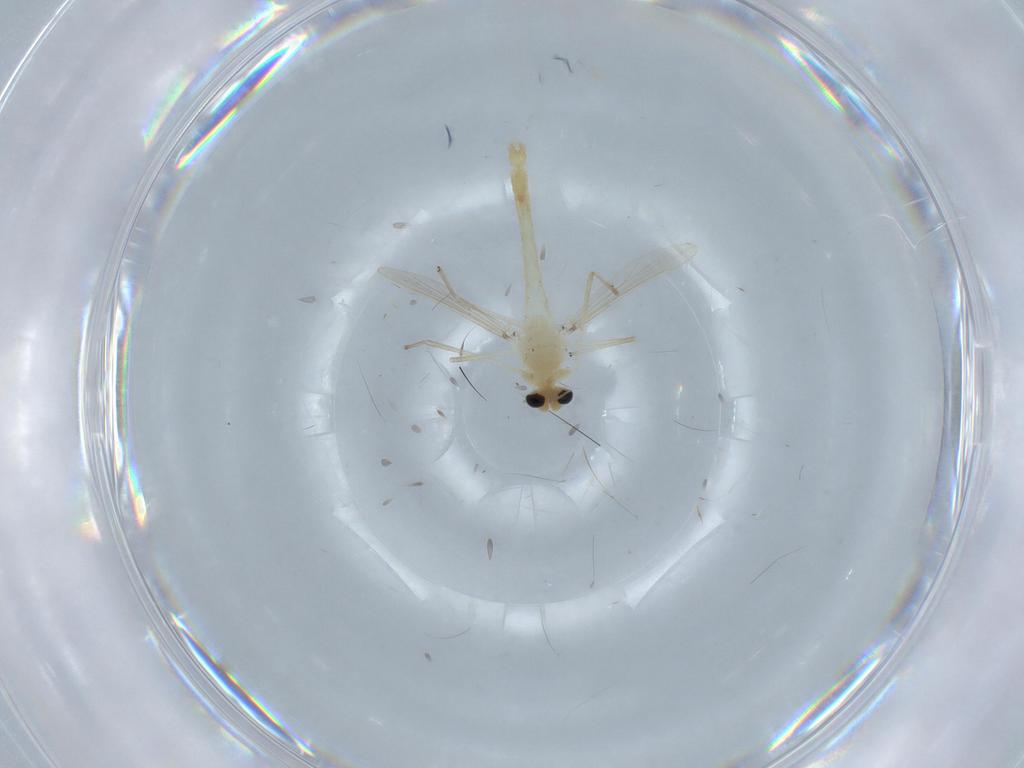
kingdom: Animalia
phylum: Arthropoda
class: Insecta
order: Diptera
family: Chironomidae
